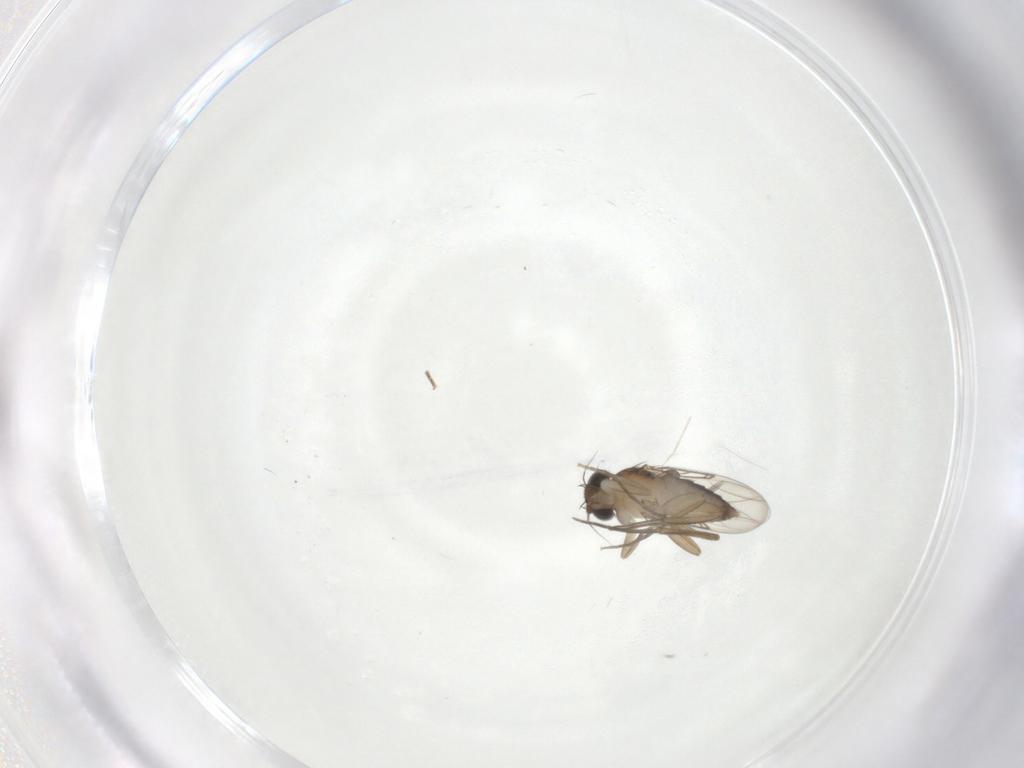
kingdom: Animalia
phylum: Arthropoda
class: Insecta
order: Diptera
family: Phoridae
